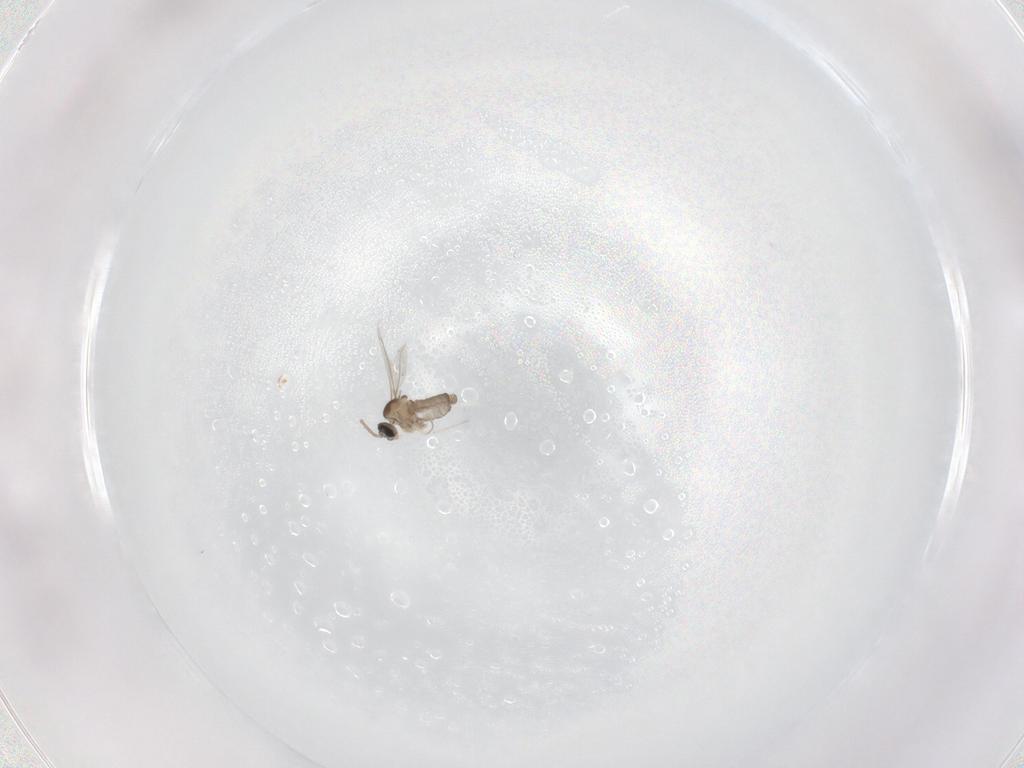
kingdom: Animalia
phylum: Arthropoda
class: Insecta
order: Diptera
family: Cecidomyiidae
